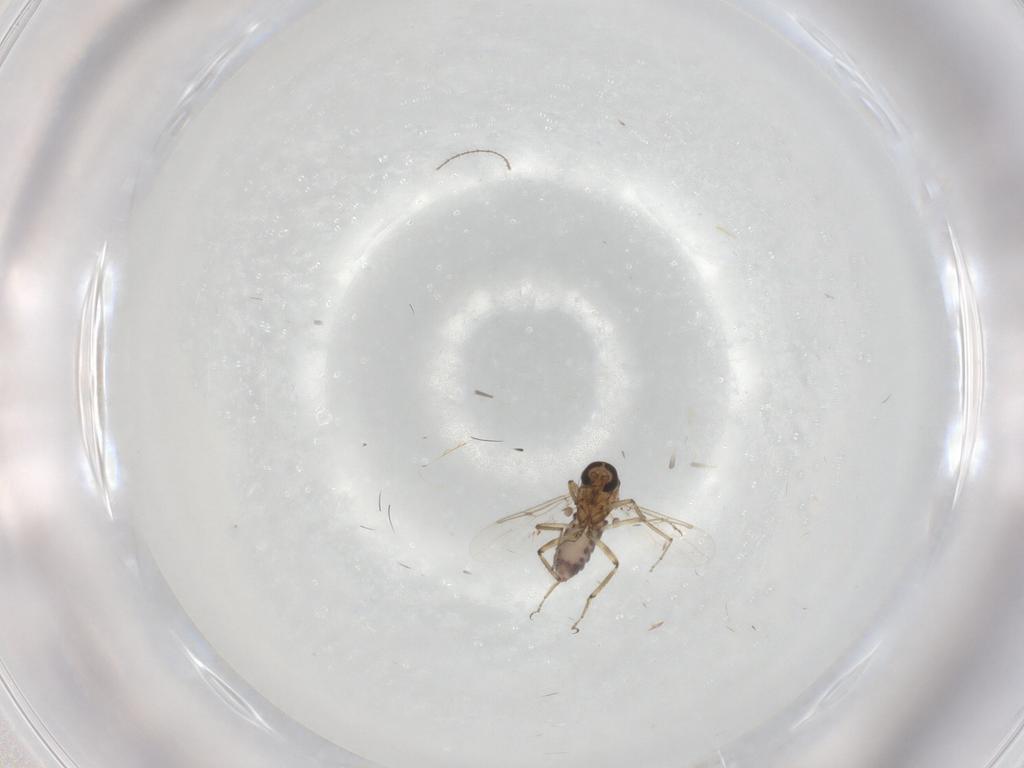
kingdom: Animalia
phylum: Arthropoda
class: Insecta
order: Diptera
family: Ceratopogonidae
